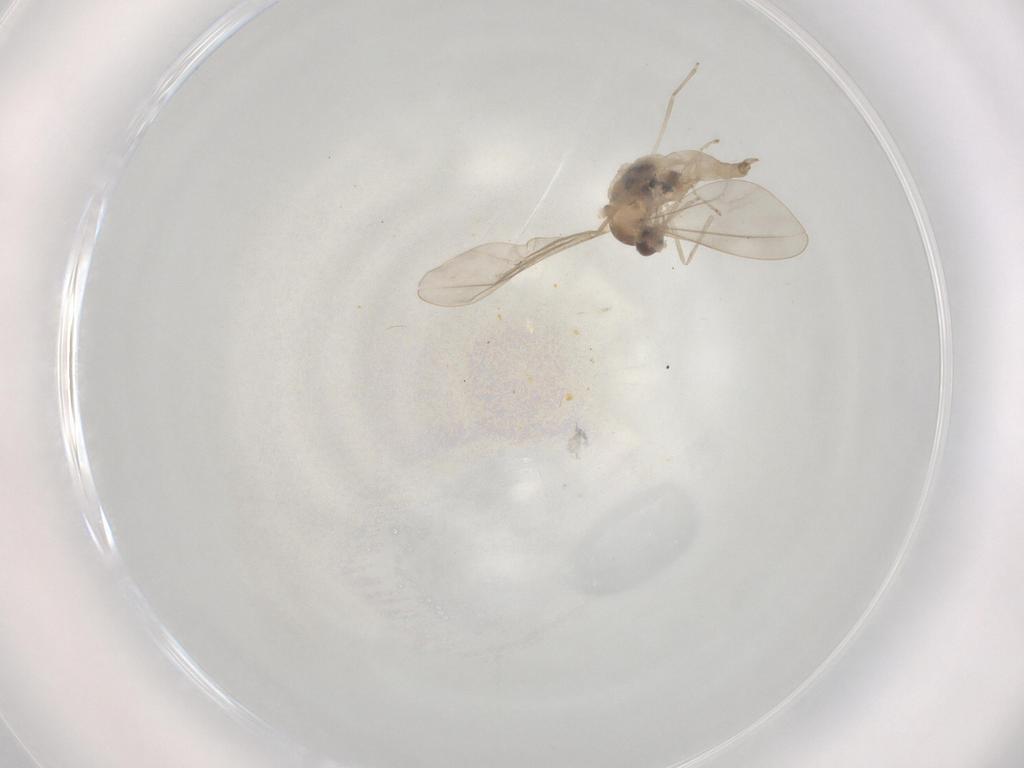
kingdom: Animalia
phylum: Arthropoda
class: Insecta
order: Diptera
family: Cecidomyiidae
